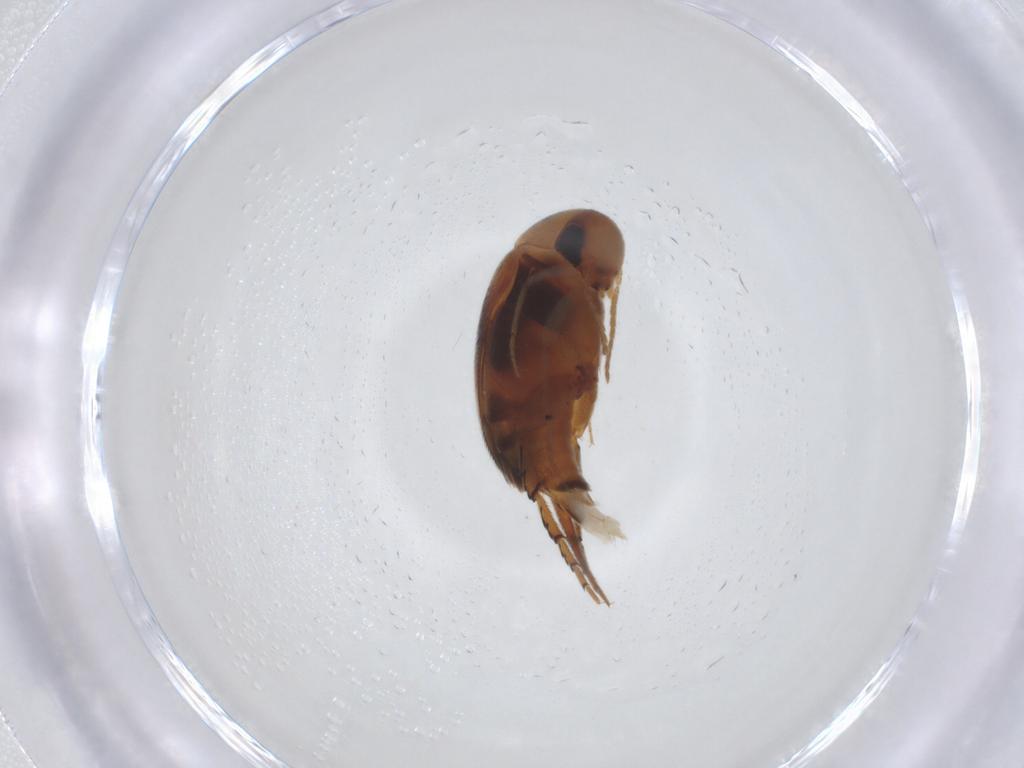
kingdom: Animalia
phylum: Arthropoda
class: Insecta
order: Coleoptera
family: Mordellidae
